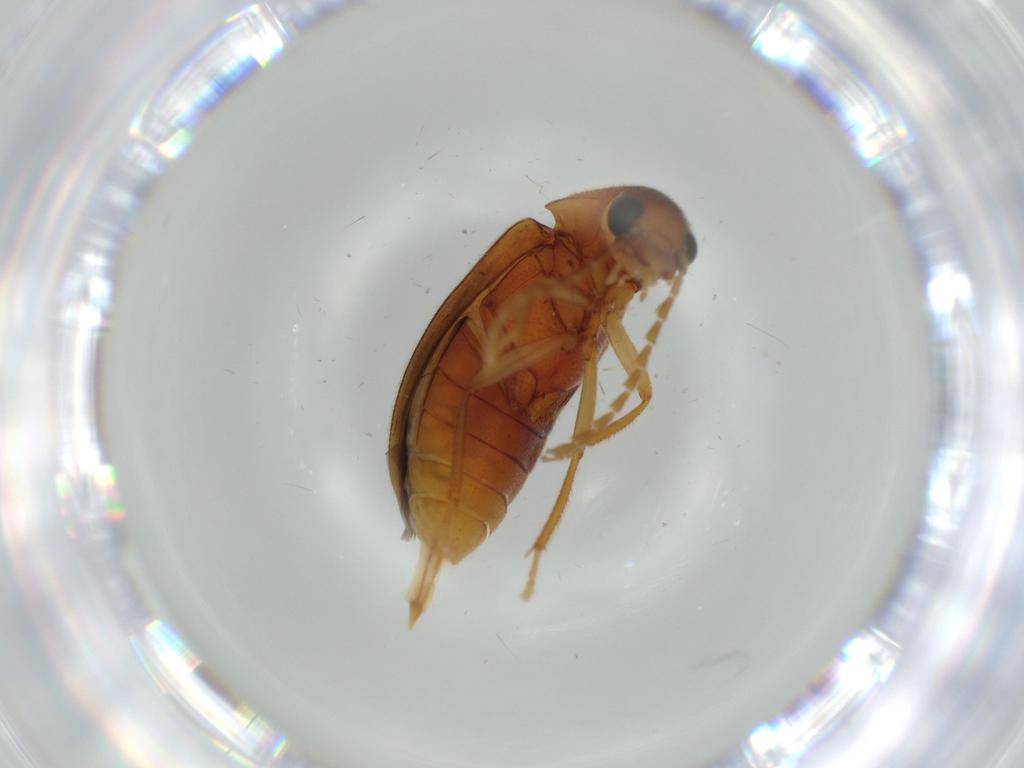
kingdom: Animalia
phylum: Arthropoda
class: Insecta
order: Coleoptera
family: Ptilodactylidae
